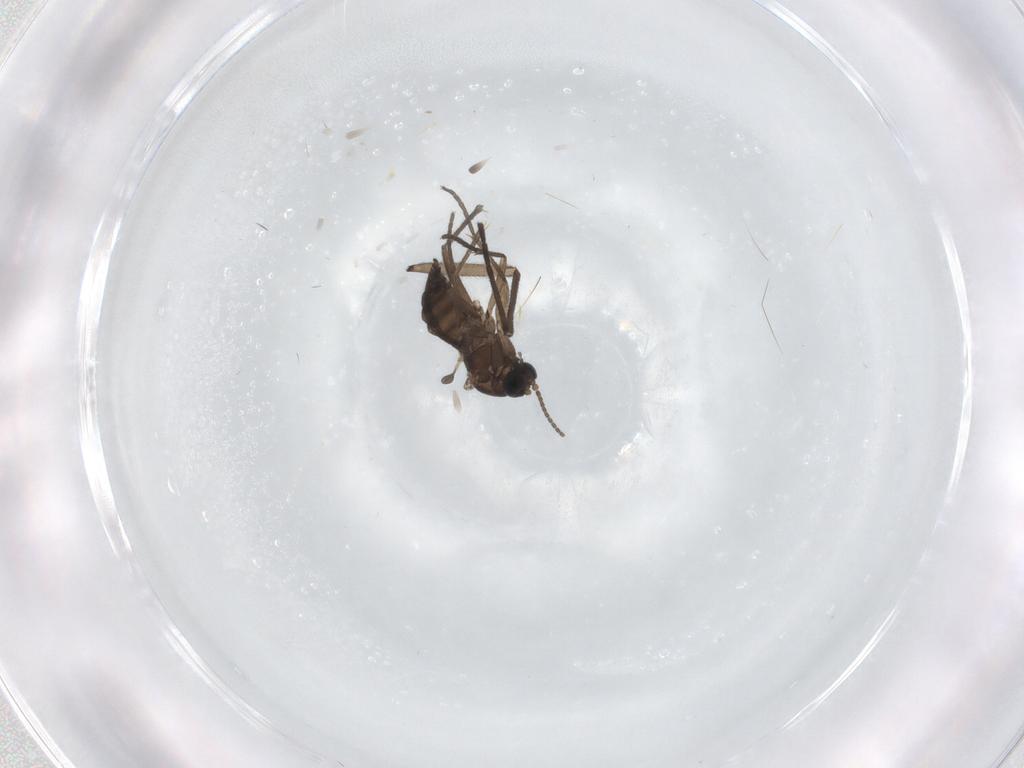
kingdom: Animalia
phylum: Arthropoda
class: Insecta
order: Diptera
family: Sciaridae
